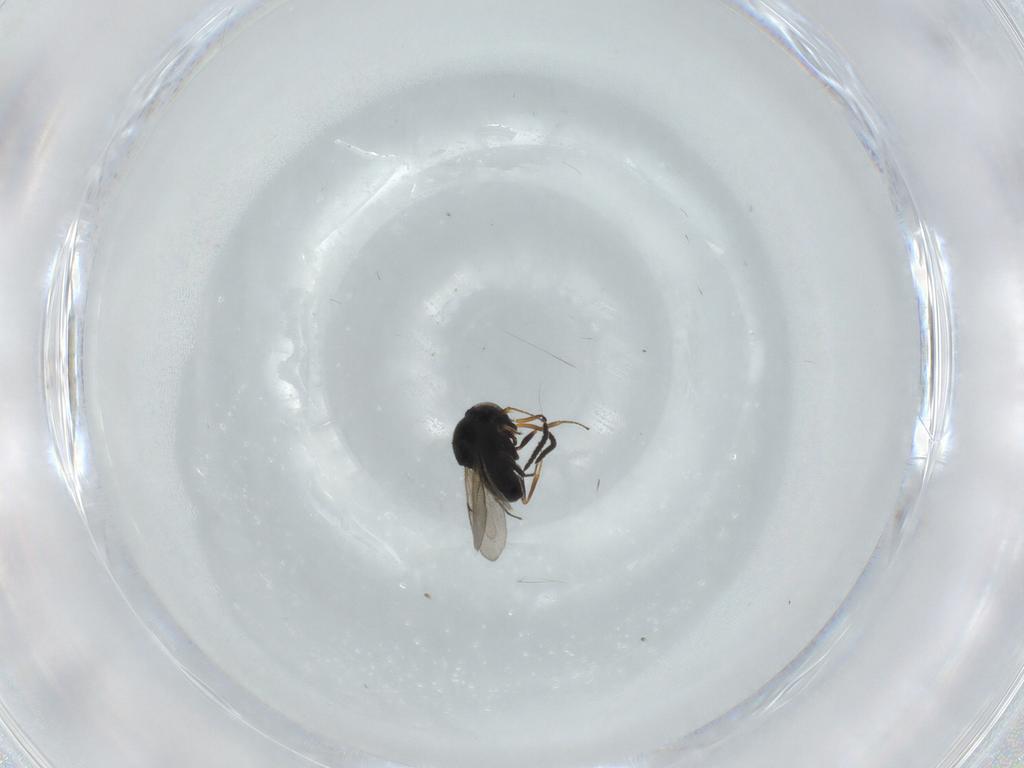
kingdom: Animalia
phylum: Arthropoda
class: Insecta
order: Hymenoptera
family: Scelionidae
